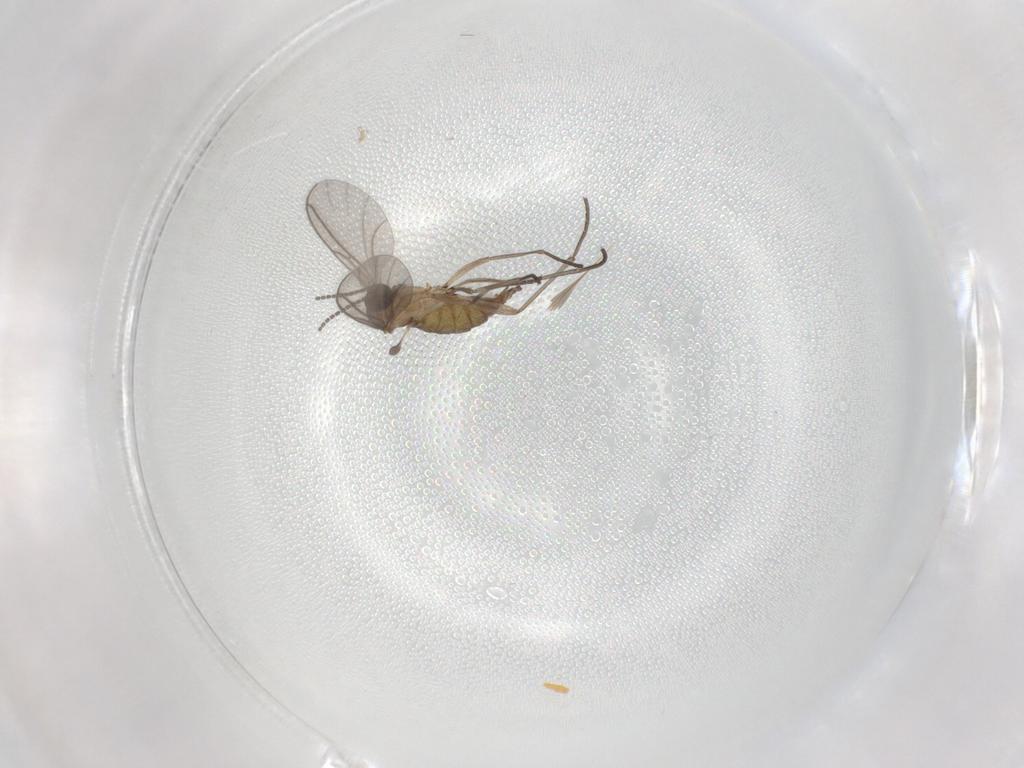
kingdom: Animalia
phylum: Arthropoda
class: Insecta
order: Diptera
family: Sciaridae
